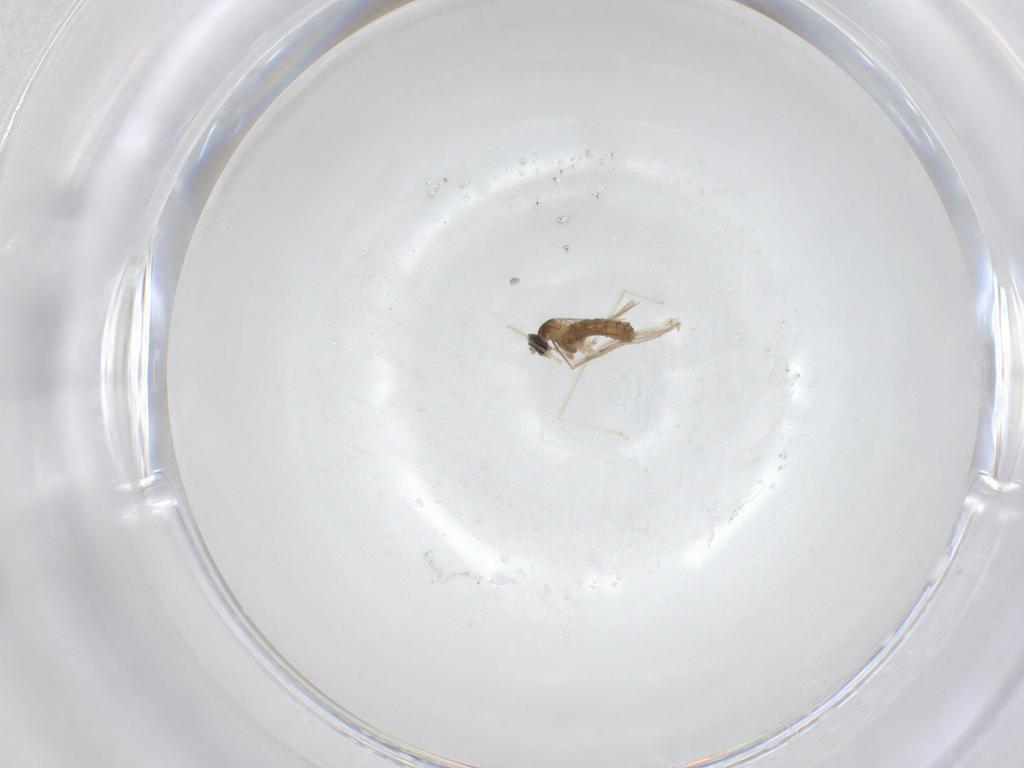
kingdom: Animalia
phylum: Arthropoda
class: Insecta
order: Diptera
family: Cecidomyiidae
